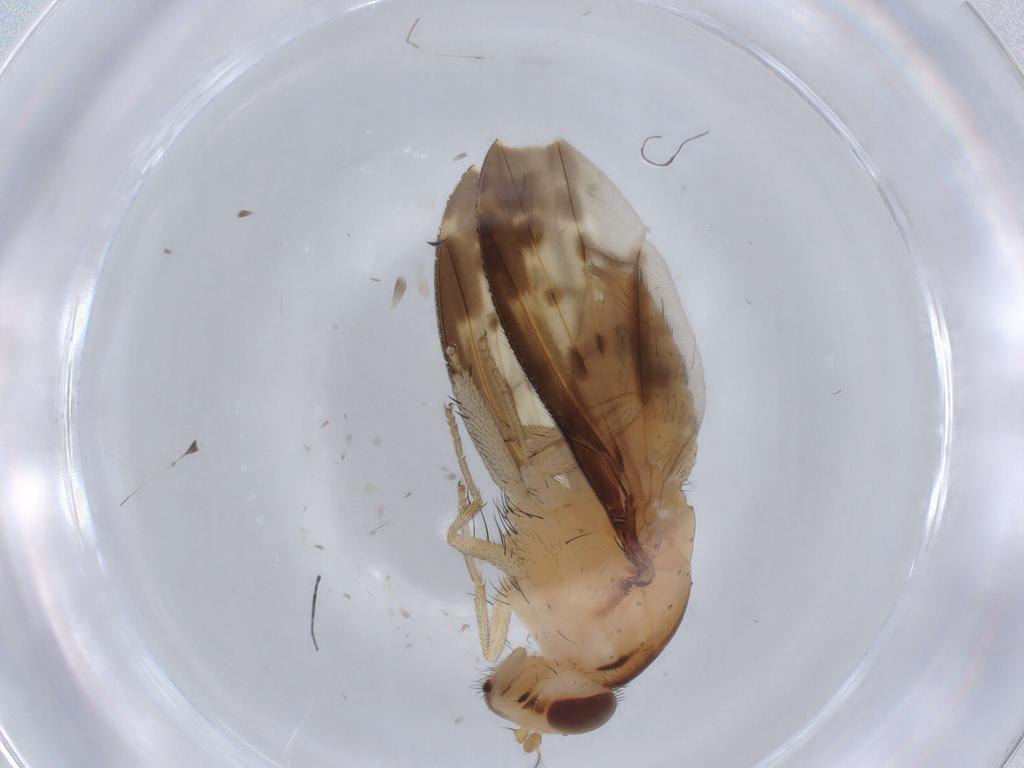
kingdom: Animalia
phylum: Arthropoda
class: Insecta
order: Diptera
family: Lauxaniidae
